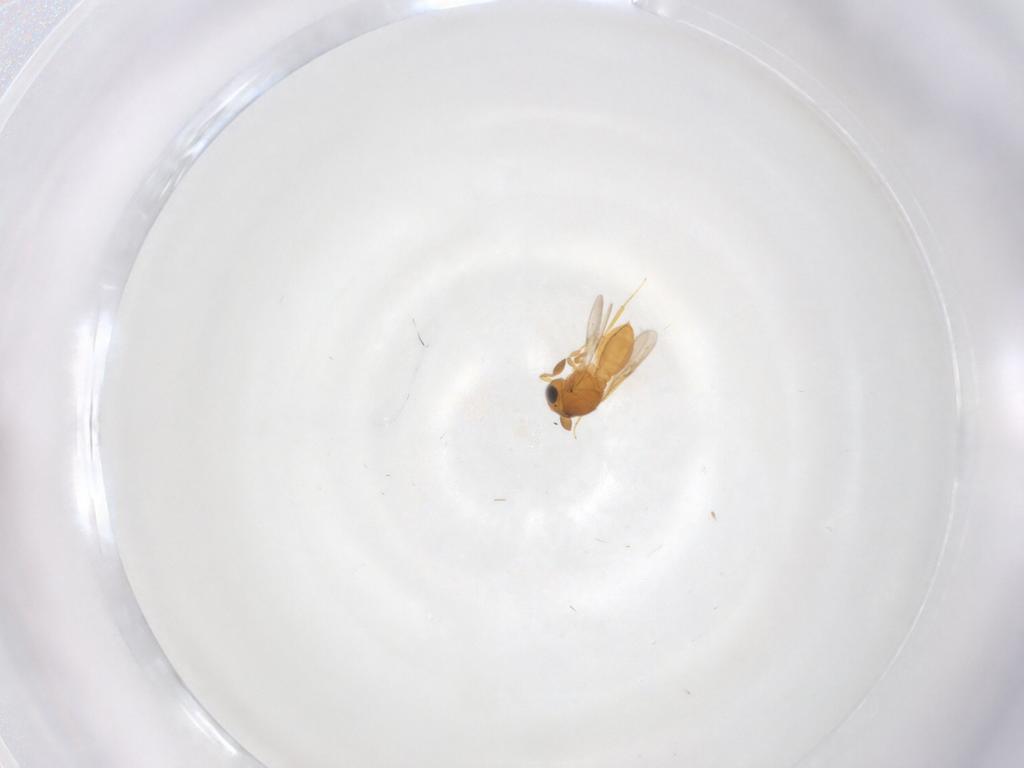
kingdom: Animalia
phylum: Arthropoda
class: Insecta
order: Hymenoptera
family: Scelionidae
